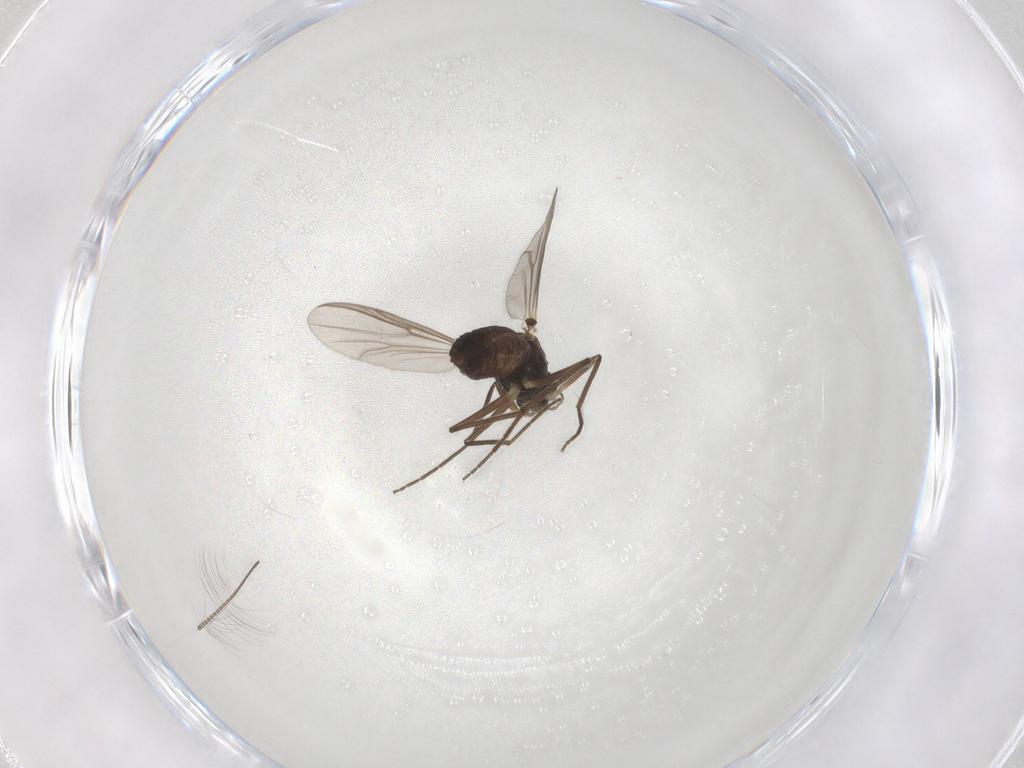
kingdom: Animalia
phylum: Arthropoda
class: Insecta
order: Diptera
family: Chironomidae
